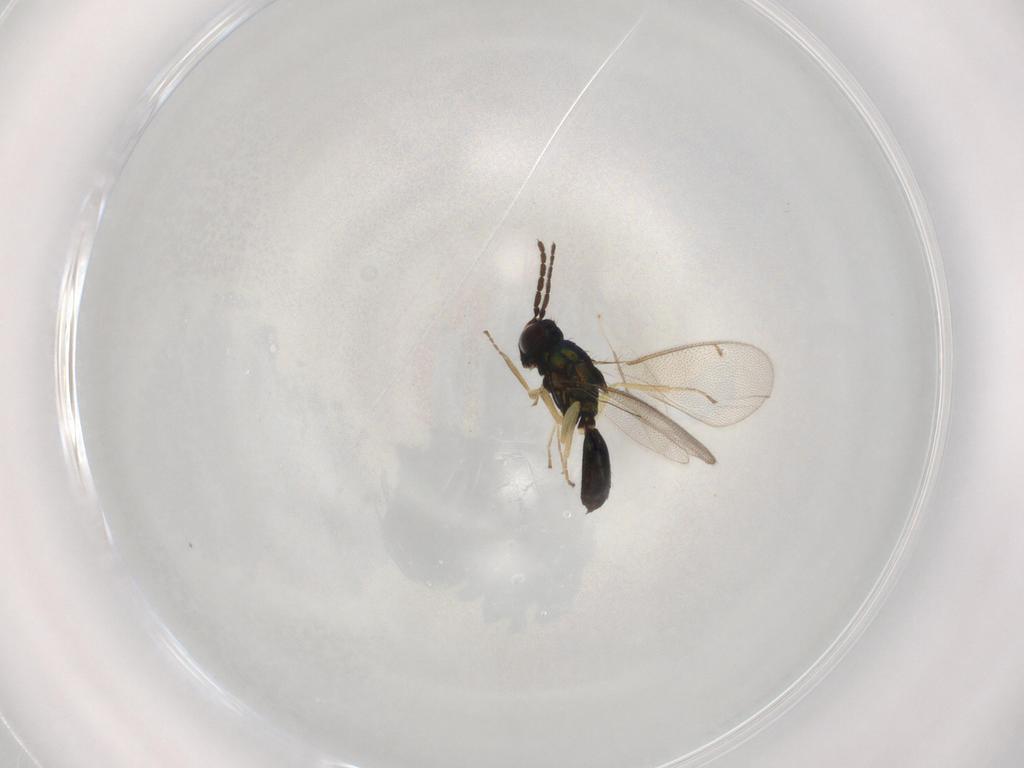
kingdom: Animalia
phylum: Arthropoda
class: Insecta
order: Hymenoptera
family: Eulophidae
